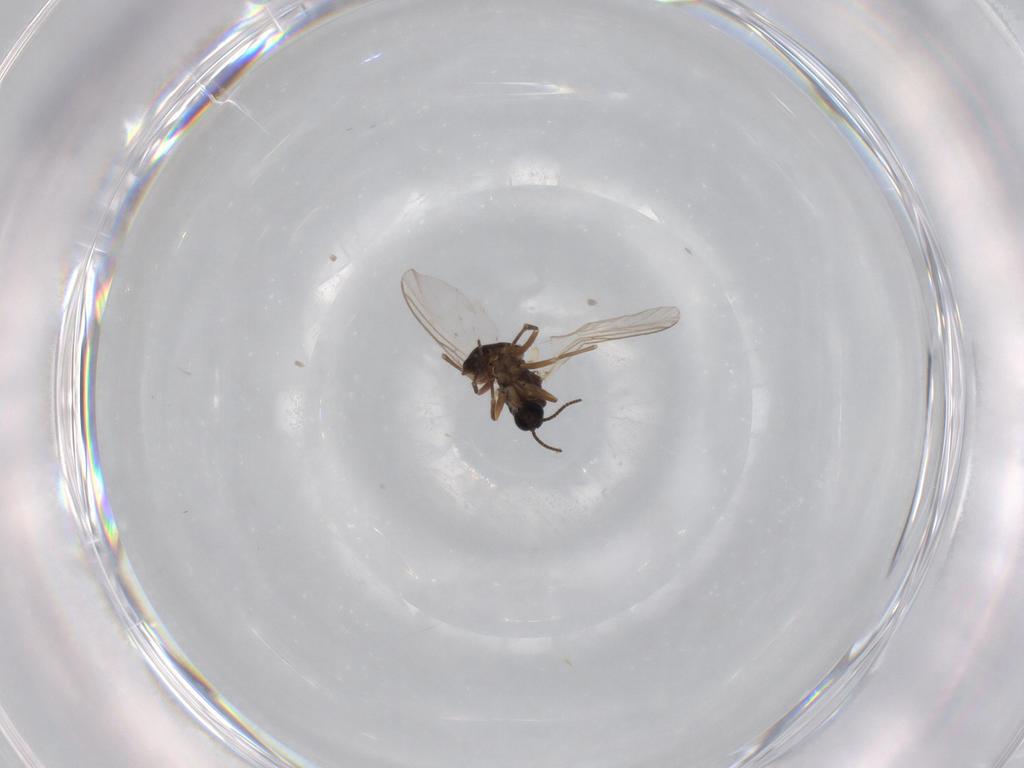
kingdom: Animalia
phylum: Arthropoda
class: Insecta
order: Diptera
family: Sciaridae
